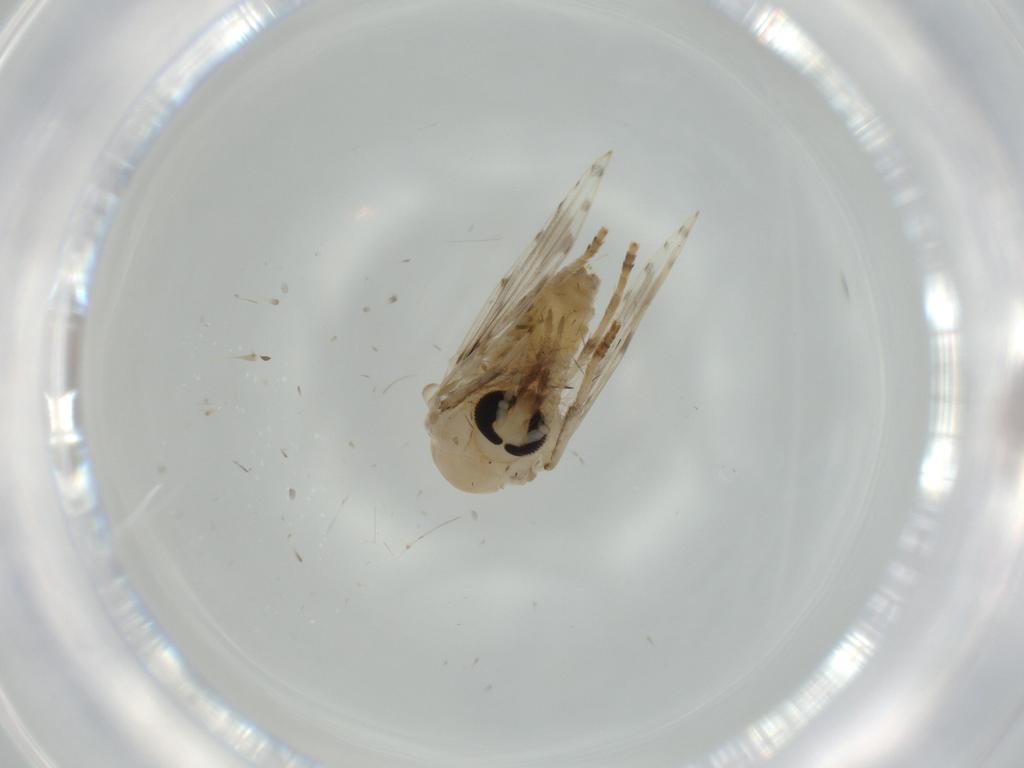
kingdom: Animalia
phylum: Arthropoda
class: Insecta
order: Diptera
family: Psychodidae
